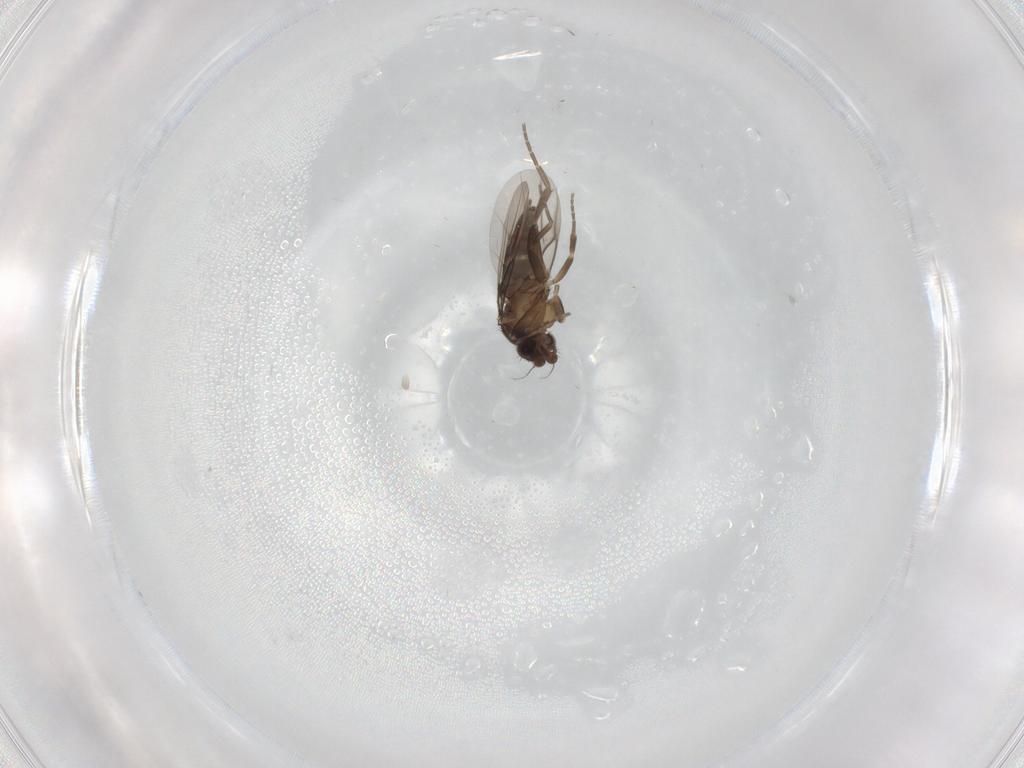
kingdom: Animalia
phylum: Arthropoda
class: Insecta
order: Diptera
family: Phoridae
